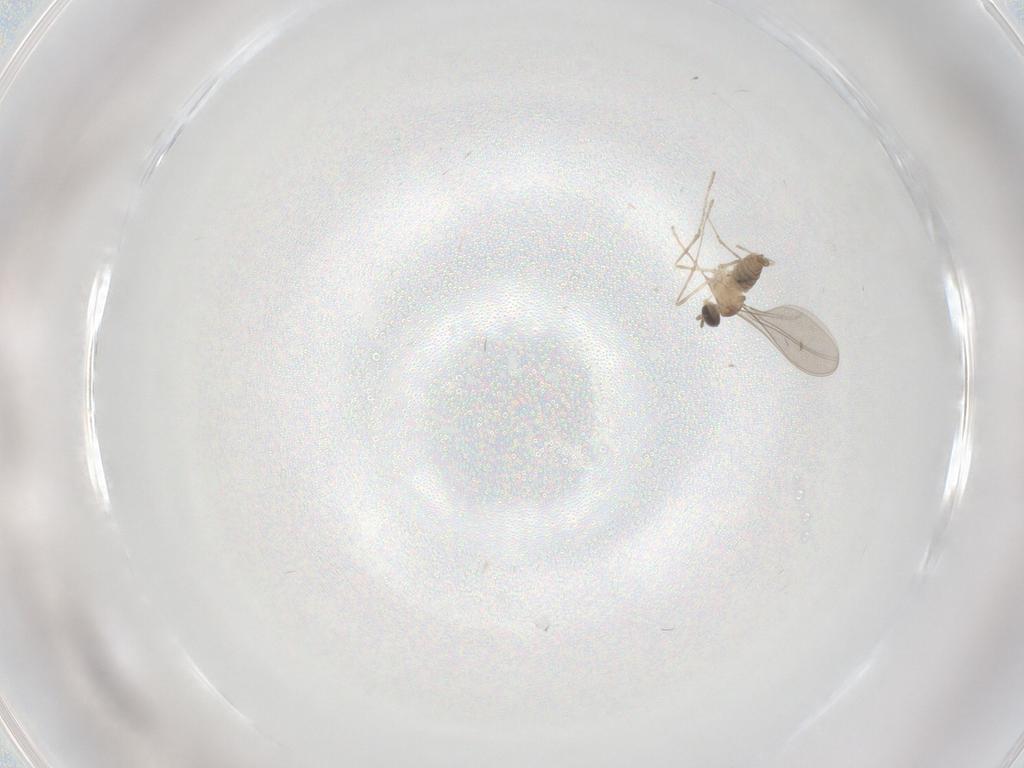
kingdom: Animalia
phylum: Arthropoda
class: Insecta
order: Diptera
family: Cecidomyiidae
